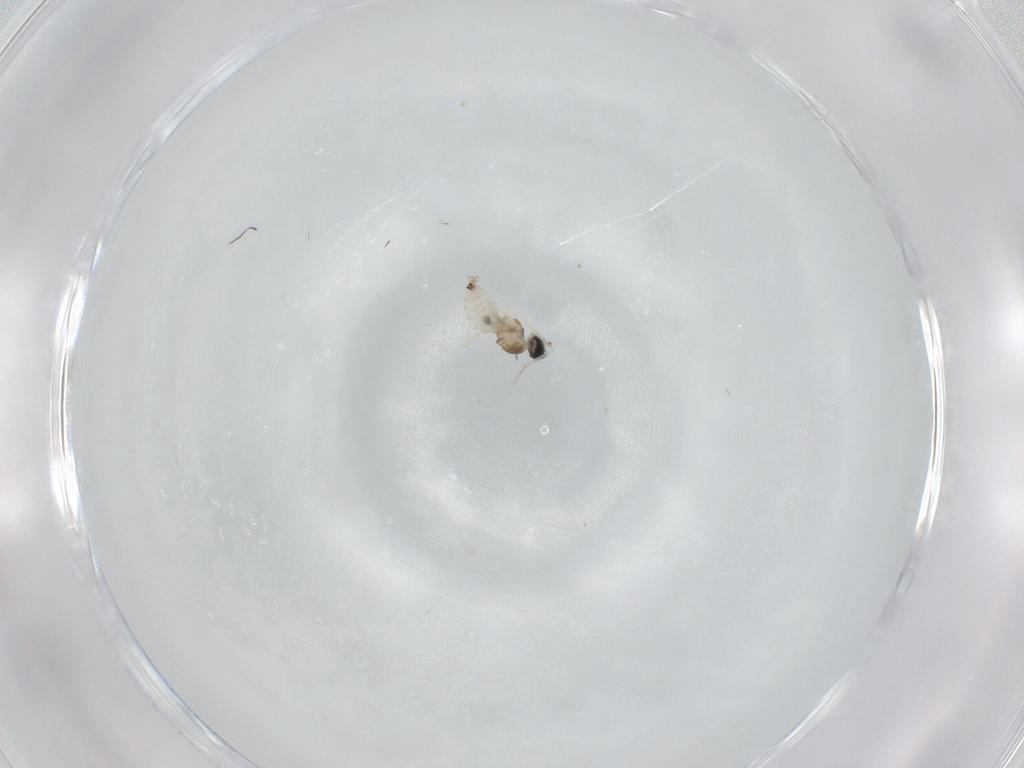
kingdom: Animalia
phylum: Arthropoda
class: Insecta
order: Diptera
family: Cecidomyiidae
